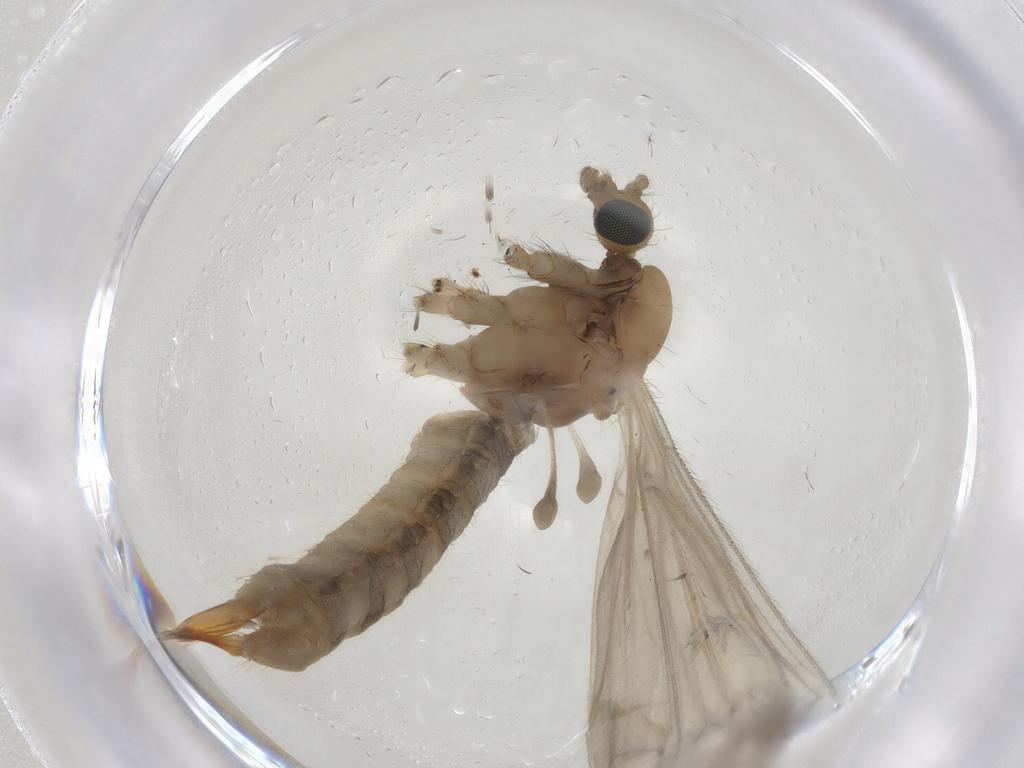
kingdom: Animalia
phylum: Arthropoda
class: Insecta
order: Diptera
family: Limoniidae
